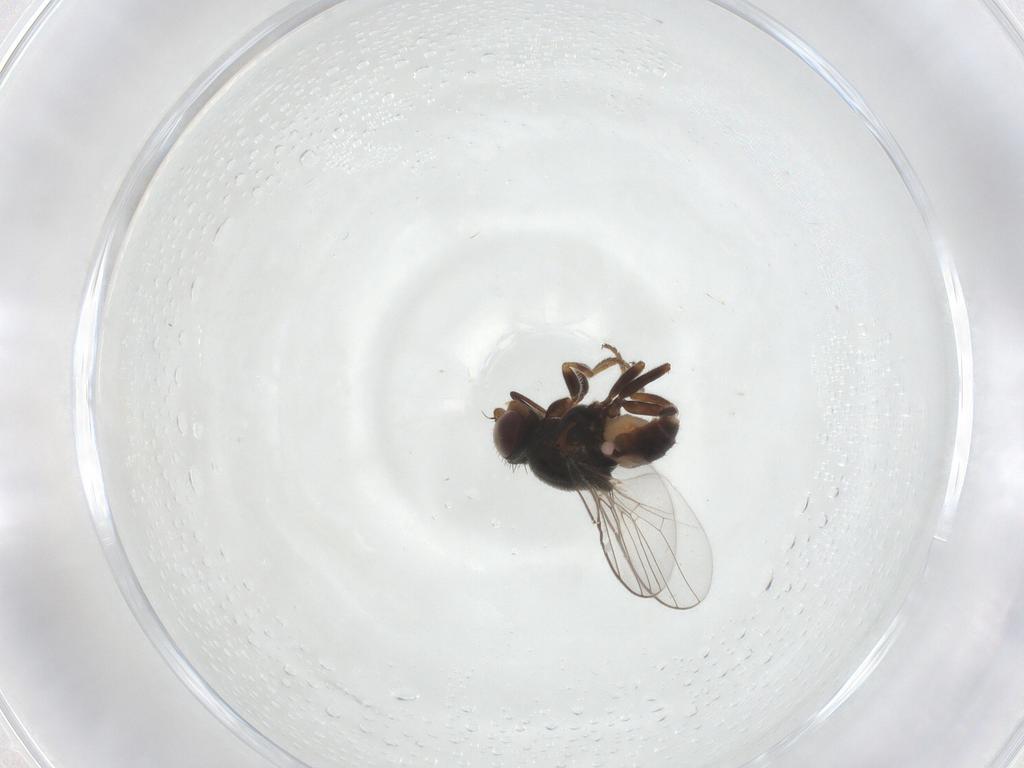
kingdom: Animalia
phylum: Arthropoda
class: Insecta
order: Diptera
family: Chloropidae
